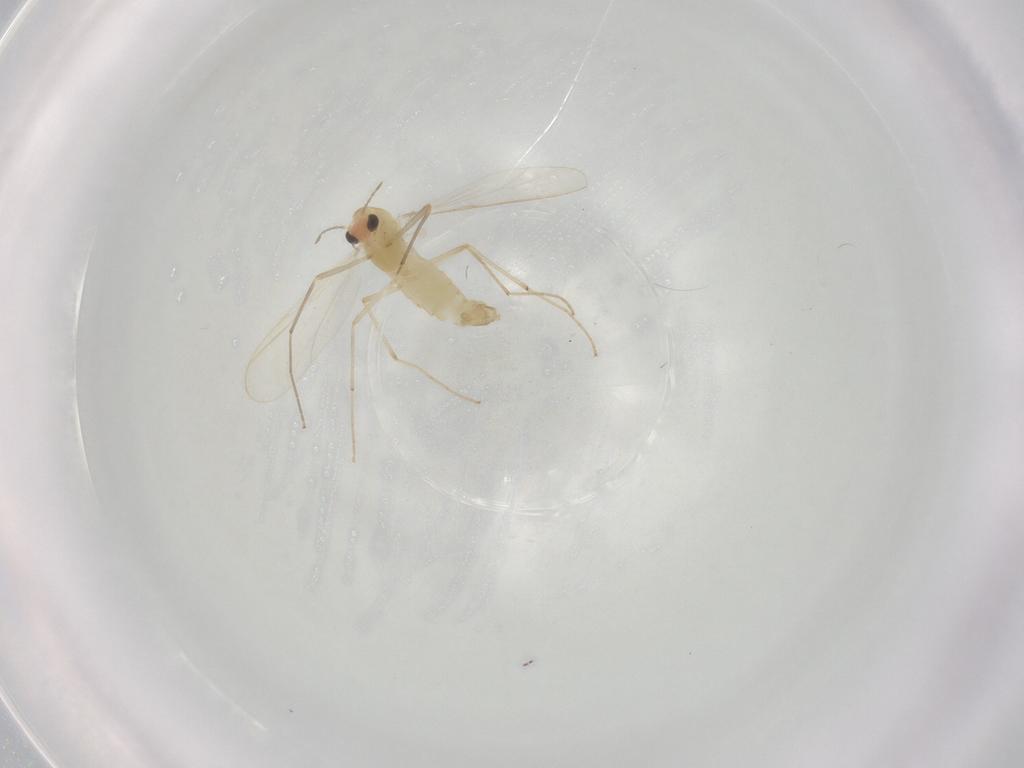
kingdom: Animalia
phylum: Arthropoda
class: Insecta
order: Diptera
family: Chironomidae
